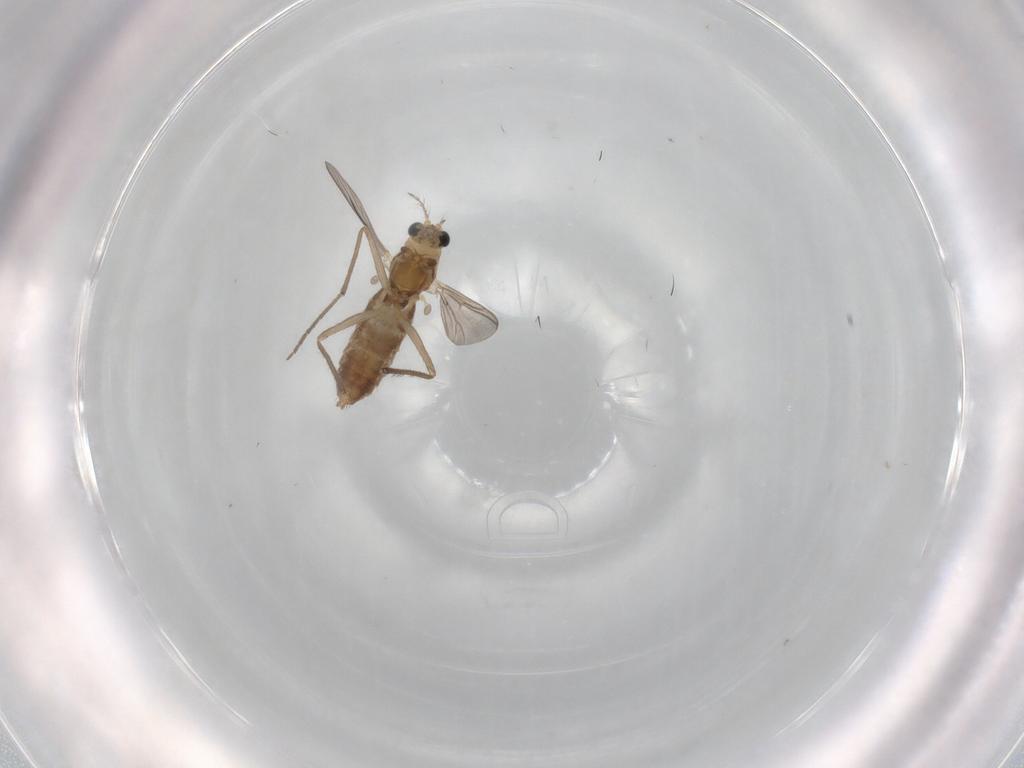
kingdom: Animalia
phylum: Arthropoda
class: Insecta
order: Diptera
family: Chironomidae
